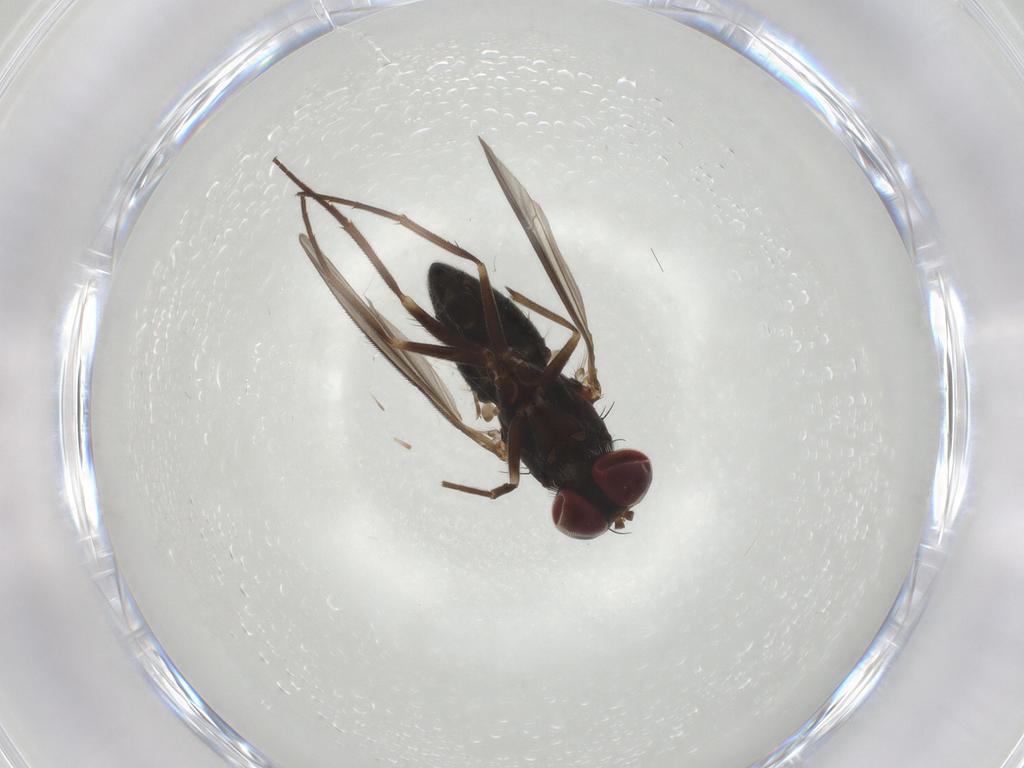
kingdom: Animalia
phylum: Arthropoda
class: Insecta
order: Diptera
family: Dolichopodidae
